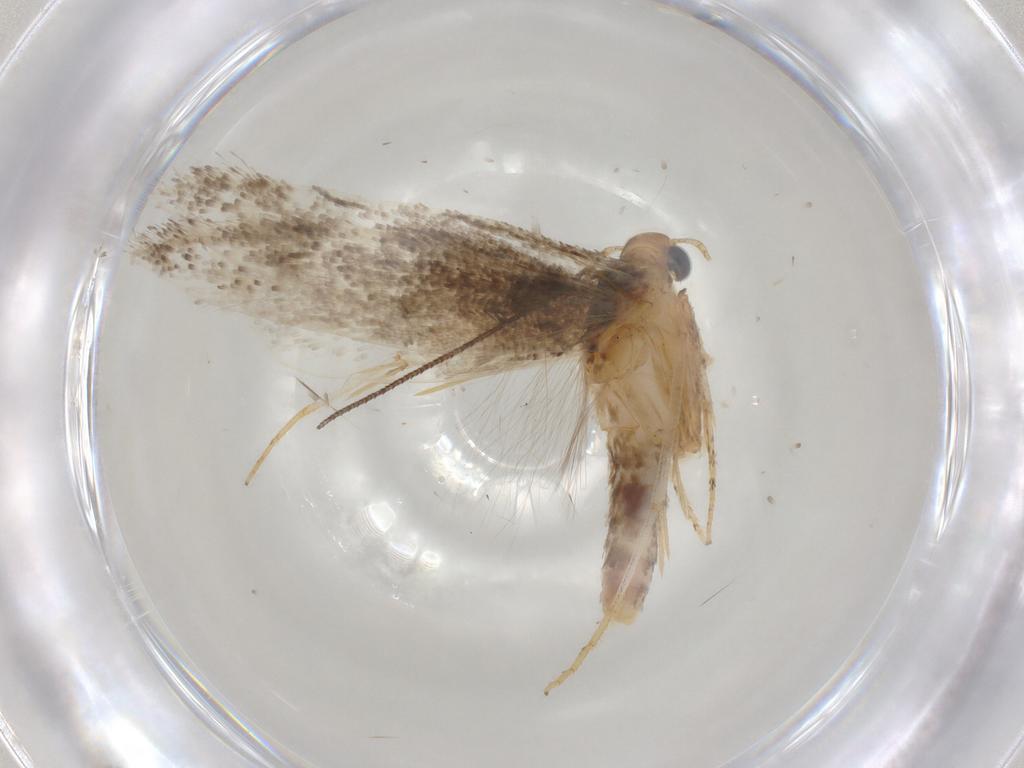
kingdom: Animalia
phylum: Arthropoda
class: Insecta
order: Lepidoptera
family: Gelechiidae
